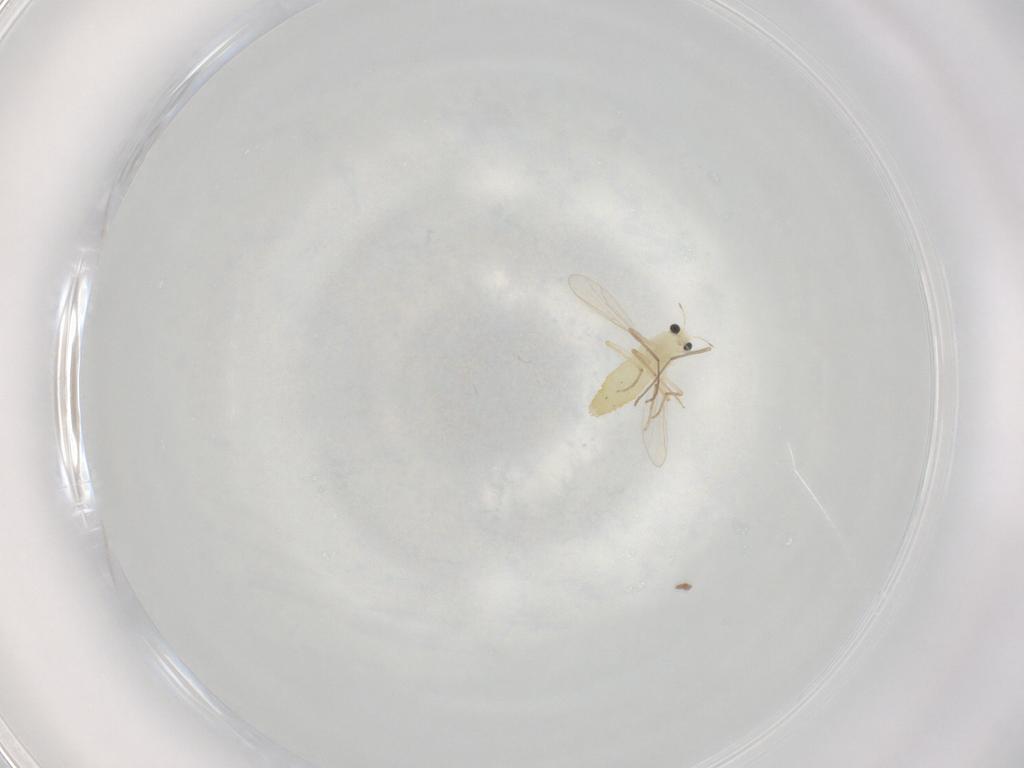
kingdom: Animalia
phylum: Arthropoda
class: Insecta
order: Diptera
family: Chironomidae
